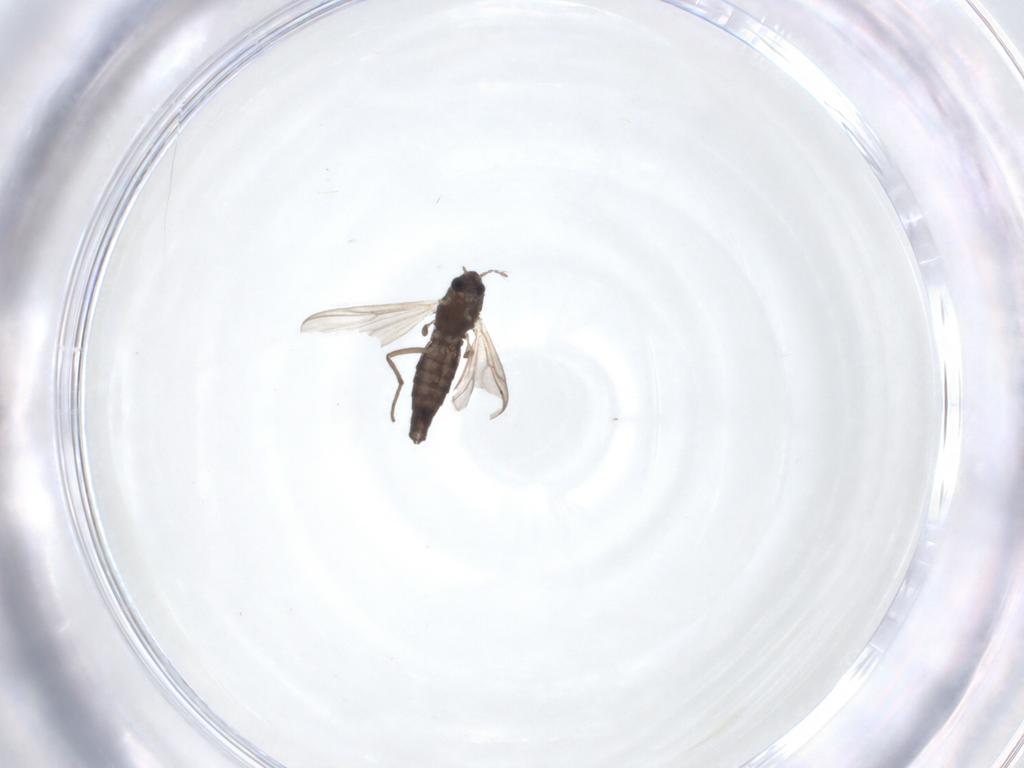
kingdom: Animalia
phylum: Arthropoda
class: Insecta
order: Diptera
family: Chironomidae
